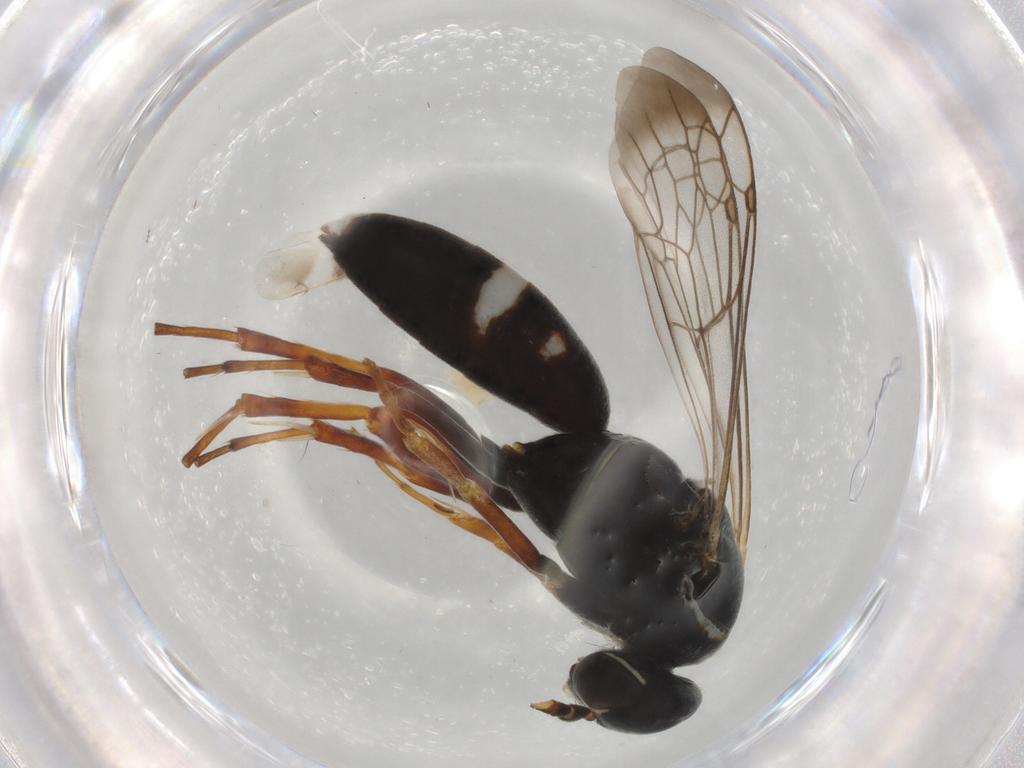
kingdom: Animalia
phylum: Arthropoda
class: Insecta
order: Hymenoptera
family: Pompilidae
